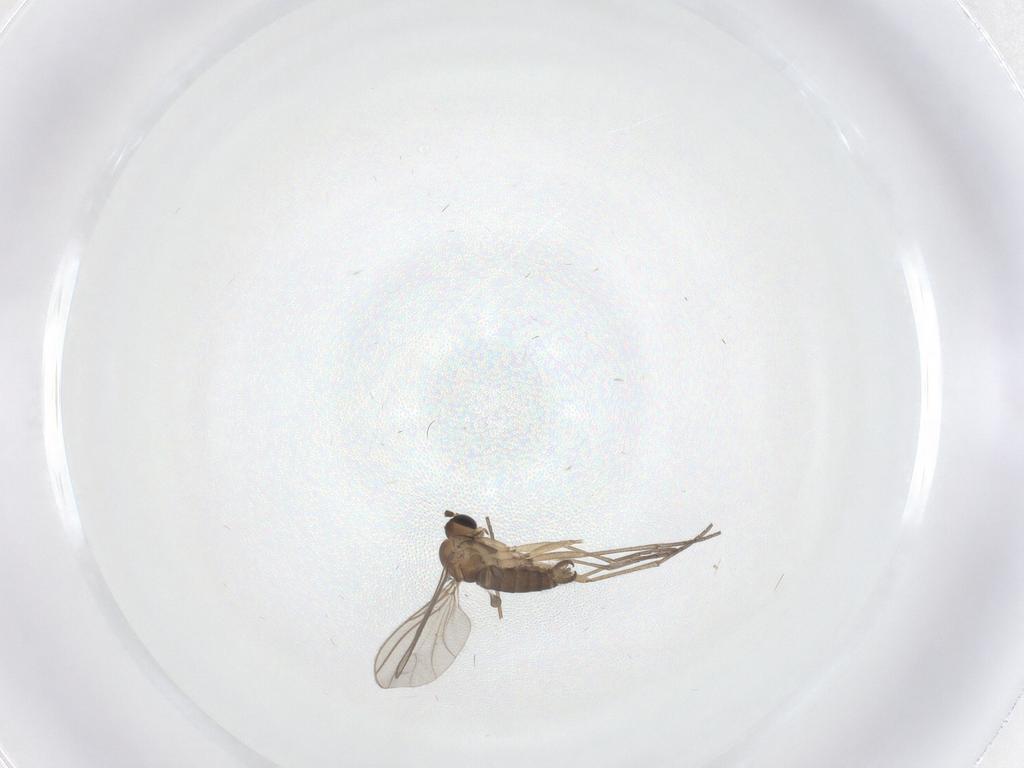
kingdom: Animalia
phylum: Arthropoda
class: Insecta
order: Diptera
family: Sciaridae
